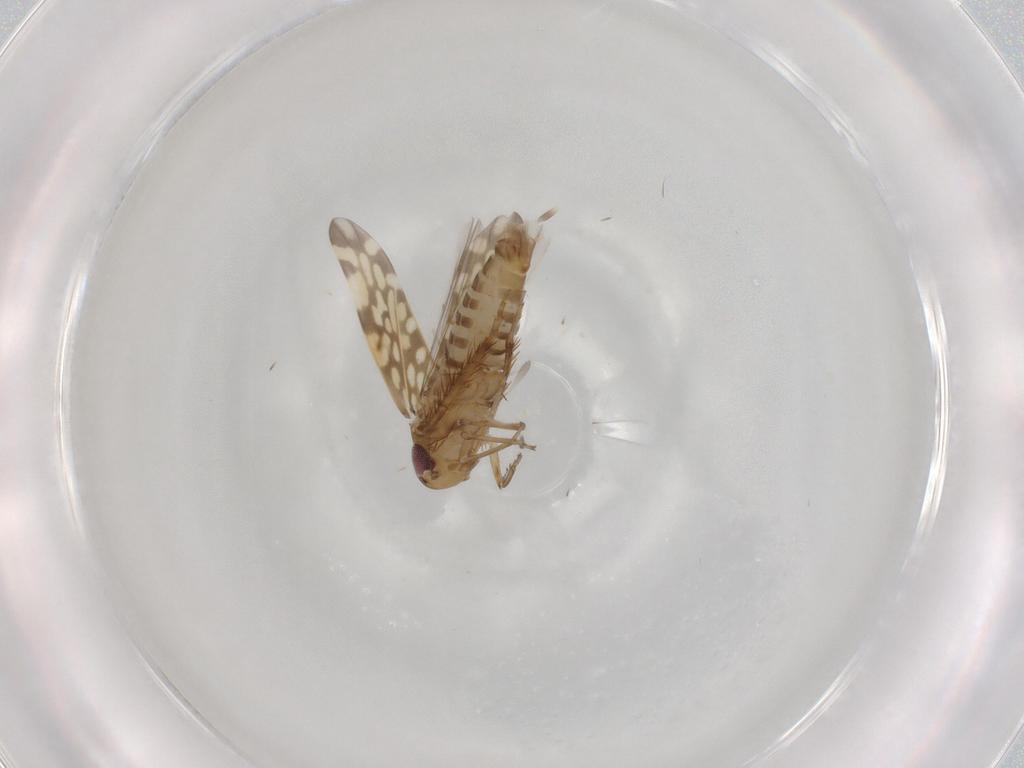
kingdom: Animalia
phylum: Arthropoda
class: Insecta
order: Hemiptera
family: Cicadellidae
